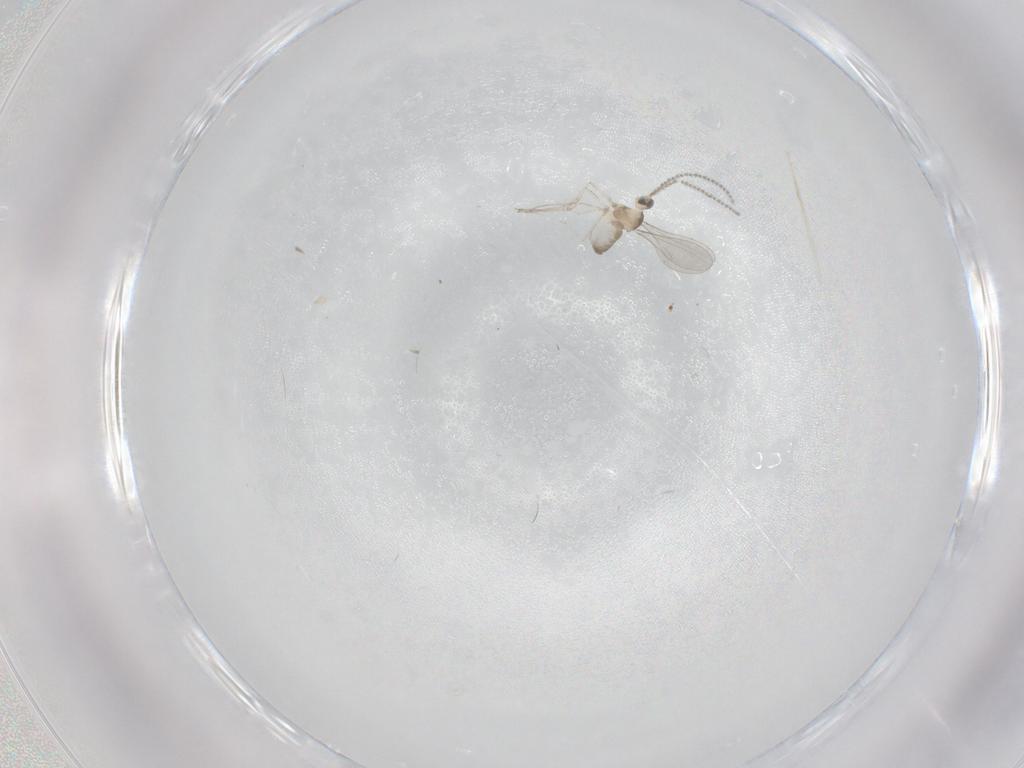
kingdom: Animalia
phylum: Arthropoda
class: Insecta
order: Diptera
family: Cecidomyiidae
